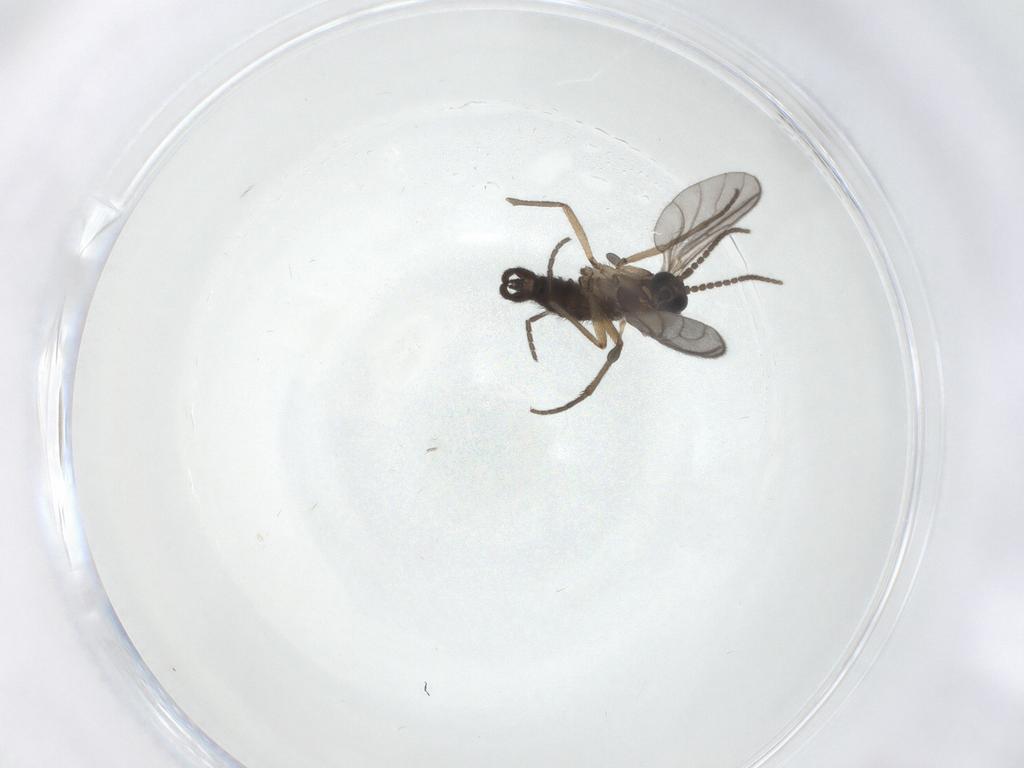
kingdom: Animalia
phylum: Arthropoda
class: Insecta
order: Diptera
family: Sciaridae
